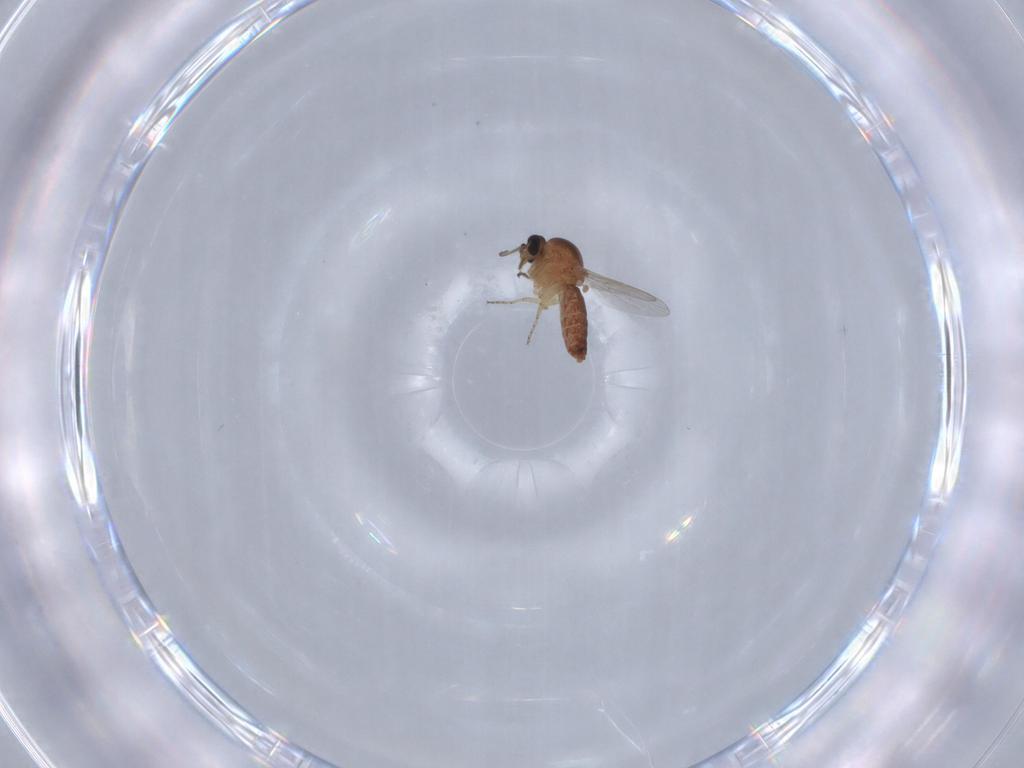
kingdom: Animalia
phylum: Arthropoda
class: Insecta
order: Diptera
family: Ceratopogonidae
